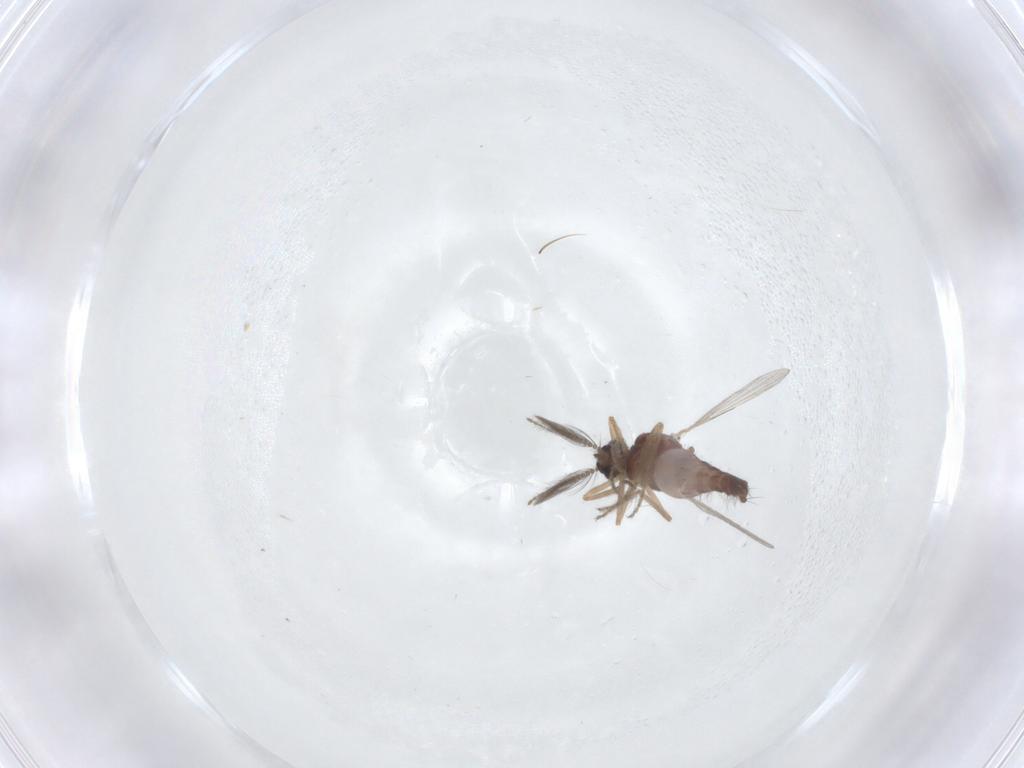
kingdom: Animalia
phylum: Arthropoda
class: Insecta
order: Diptera
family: Ceratopogonidae
